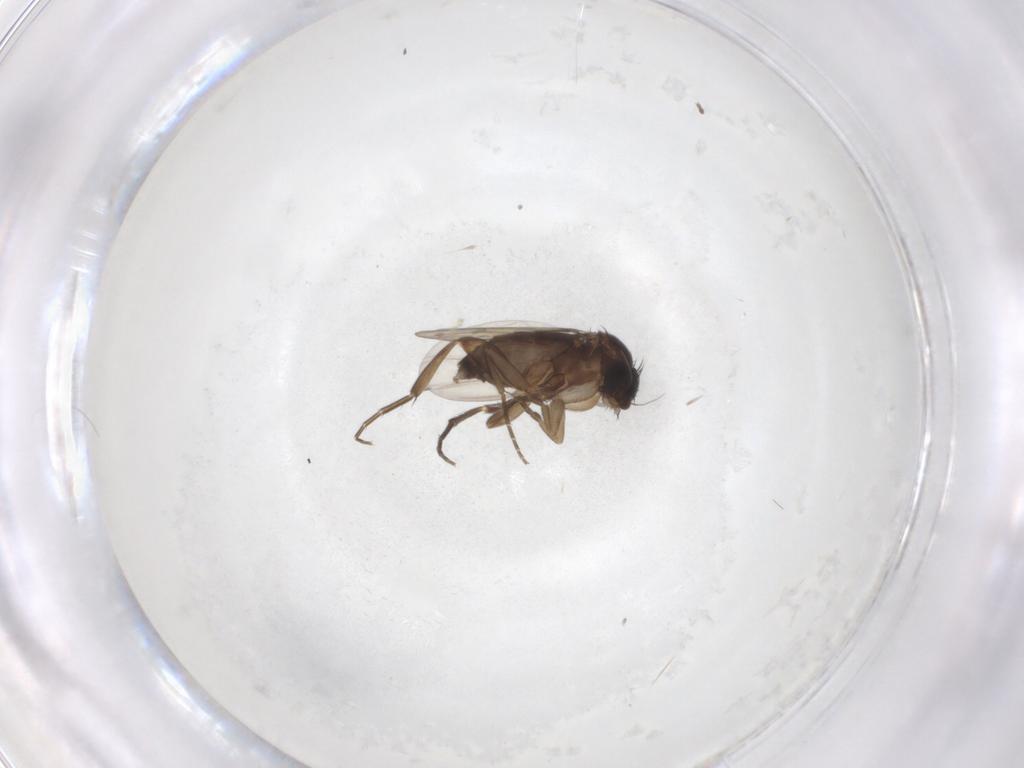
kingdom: Animalia
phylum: Arthropoda
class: Insecta
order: Diptera
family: Phoridae
